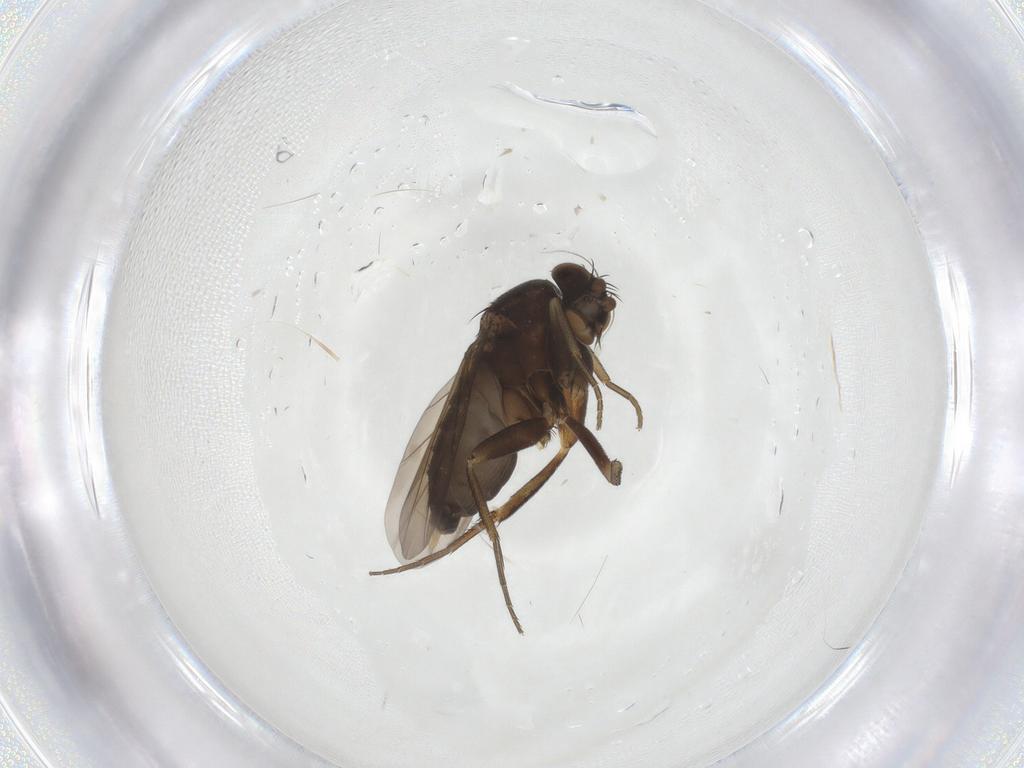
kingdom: Animalia
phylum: Arthropoda
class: Insecta
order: Diptera
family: Phoridae
